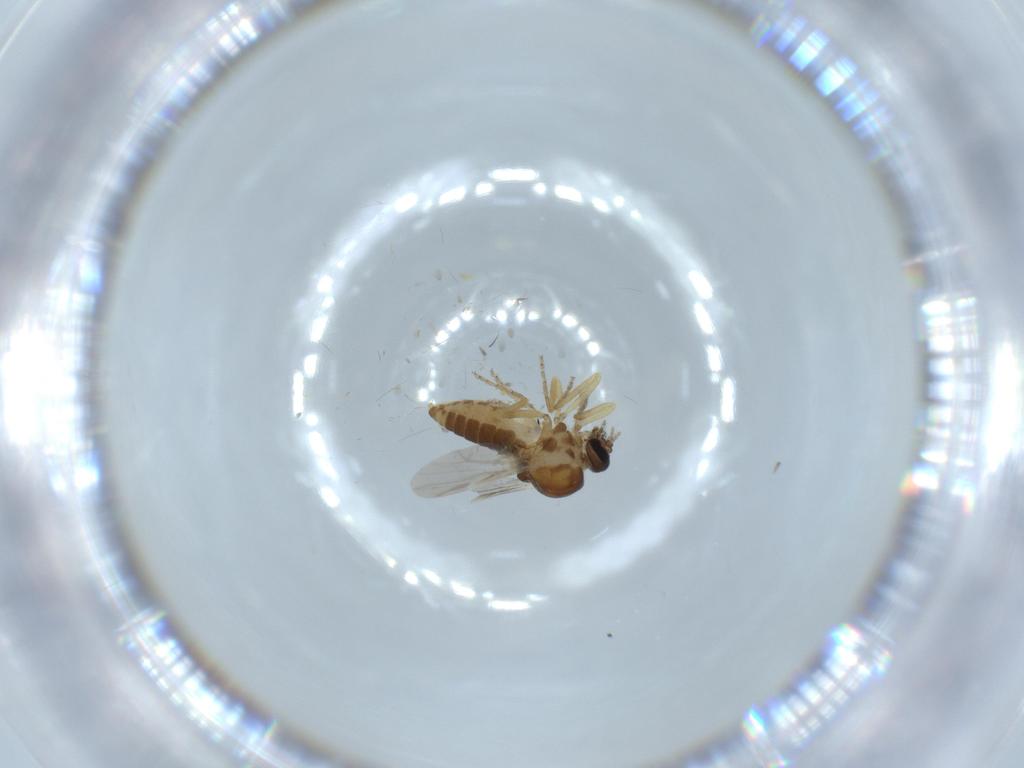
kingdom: Animalia
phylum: Arthropoda
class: Insecta
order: Diptera
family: Ceratopogonidae
